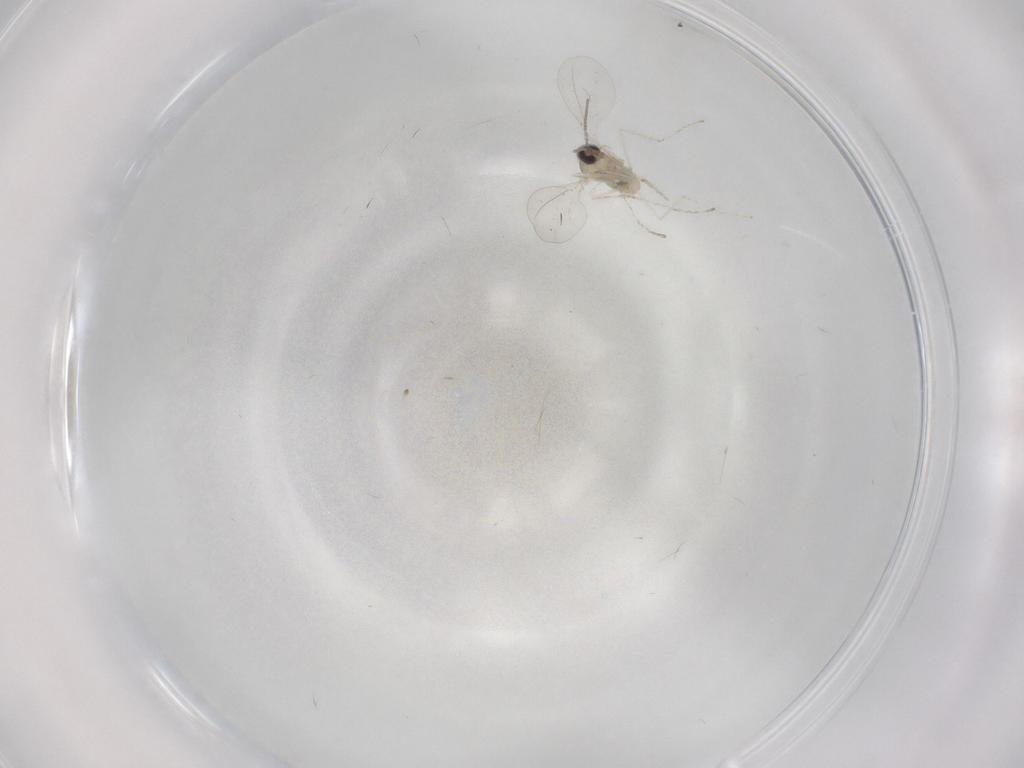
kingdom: Animalia
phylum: Arthropoda
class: Insecta
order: Diptera
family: Cecidomyiidae
